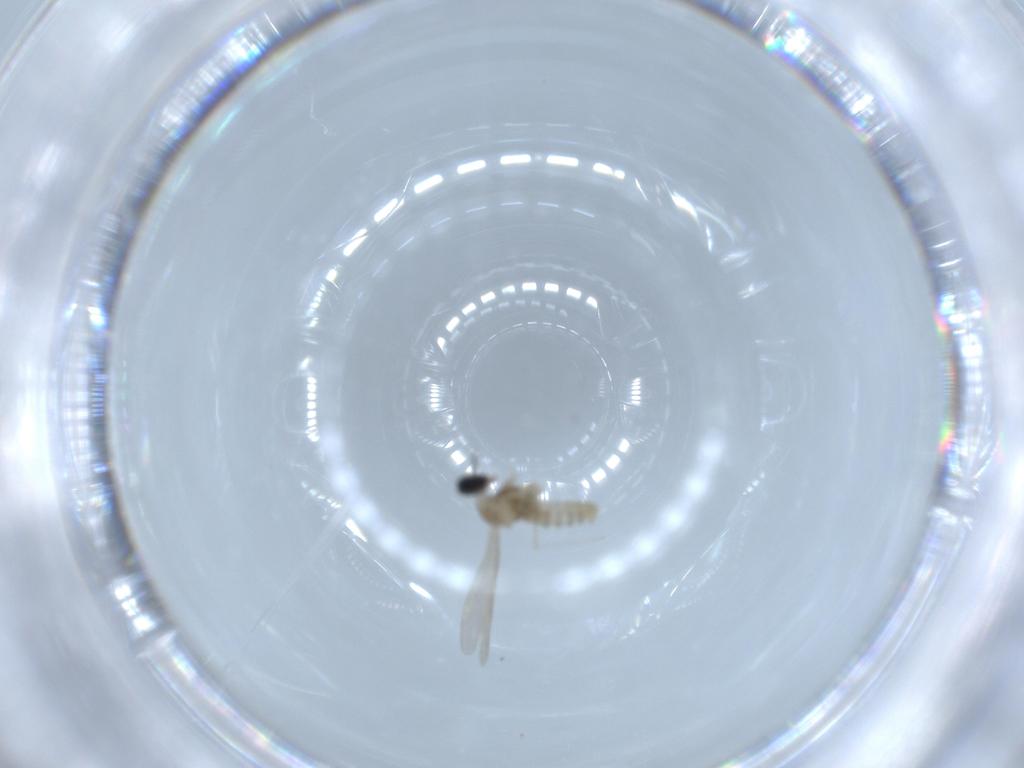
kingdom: Animalia
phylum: Arthropoda
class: Insecta
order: Diptera
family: Cecidomyiidae
